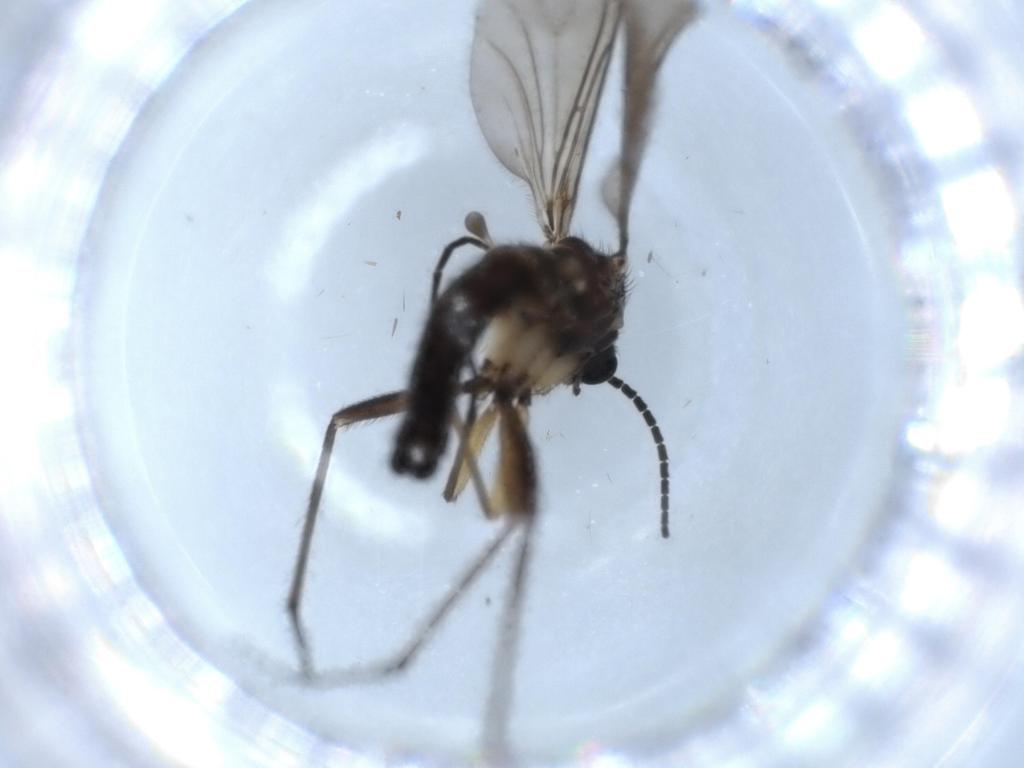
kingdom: Animalia
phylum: Arthropoda
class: Insecta
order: Diptera
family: Sciaridae
